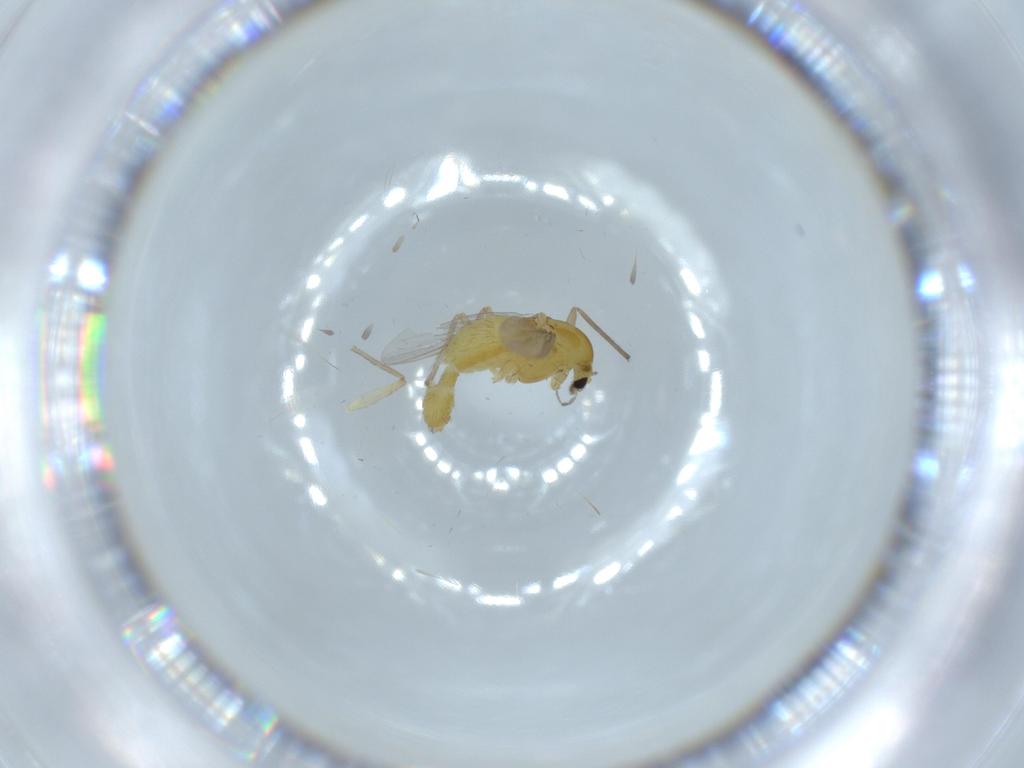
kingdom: Animalia
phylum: Arthropoda
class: Insecta
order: Diptera
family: Chironomidae
